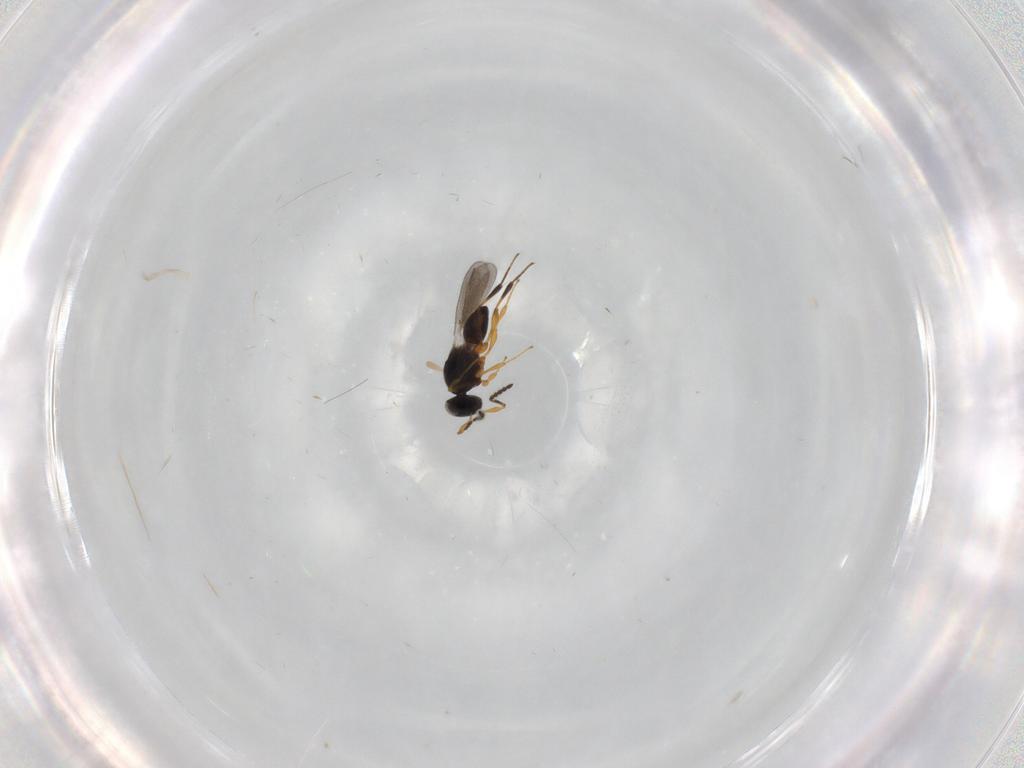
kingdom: Animalia
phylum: Arthropoda
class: Insecta
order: Hymenoptera
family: Platygastridae
